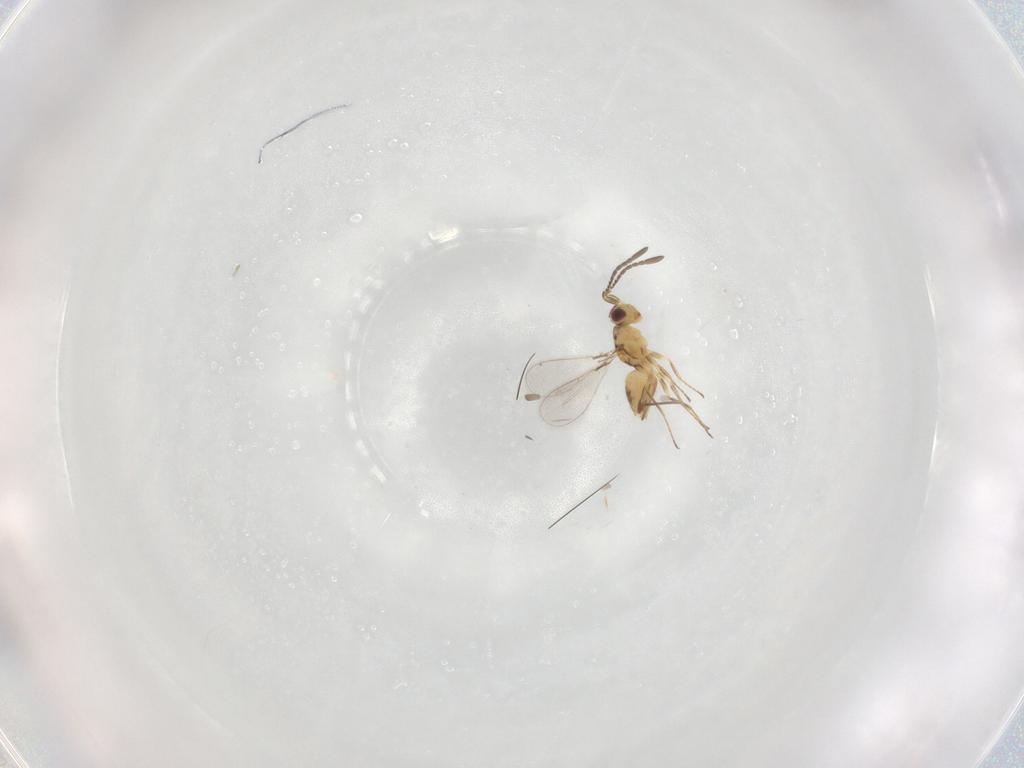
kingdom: Animalia
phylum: Arthropoda
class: Insecta
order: Hymenoptera
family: Mymaridae
